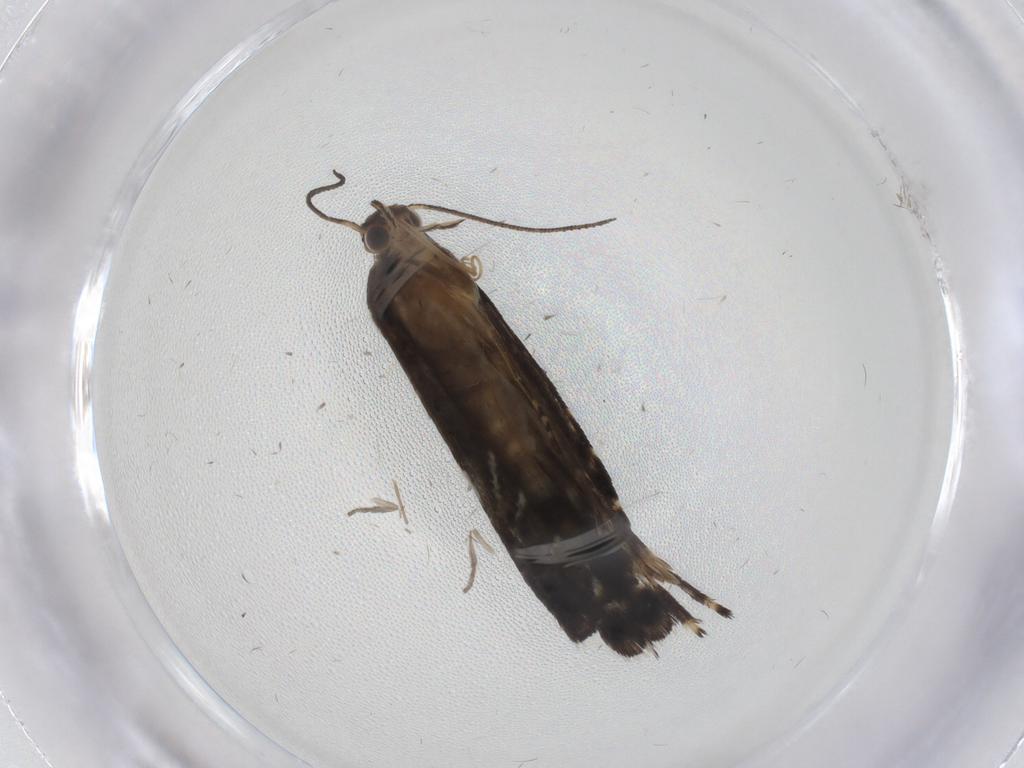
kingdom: Animalia
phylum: Arthropoda
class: Insecta
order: Lepidoptera
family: Glyphipterigidae
